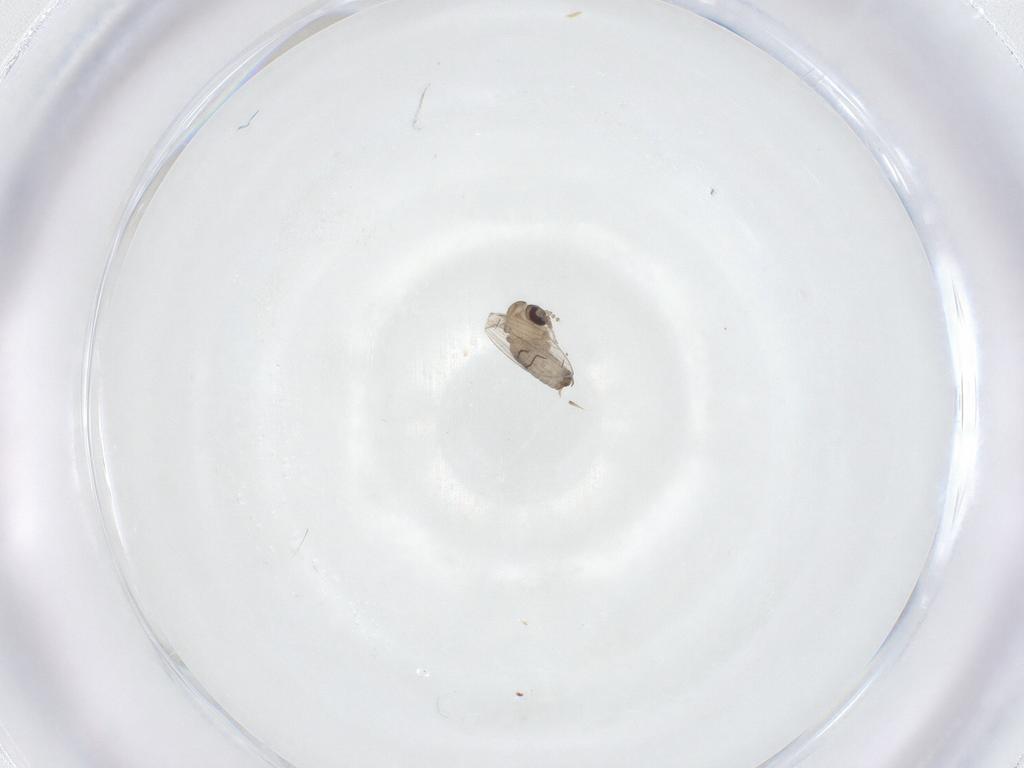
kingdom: Animalia
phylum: Arthropoda
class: Insecta
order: Diptera
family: Psychodidae
